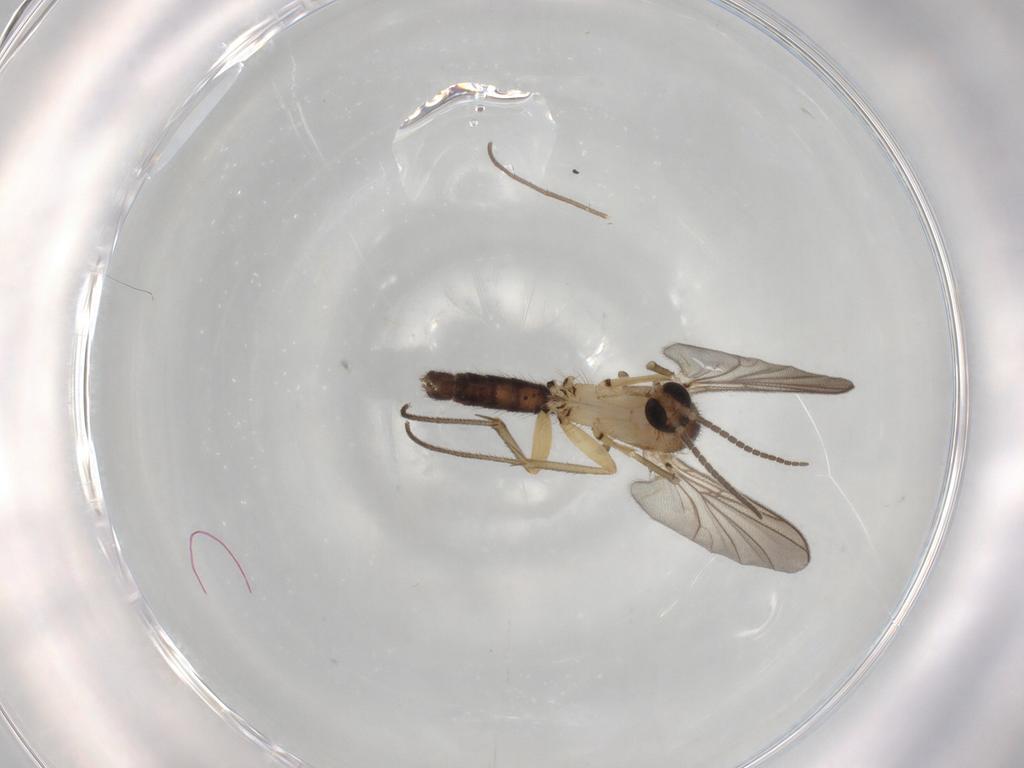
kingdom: Animalia
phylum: Arthropoda
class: Insecta
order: Diptera
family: Mycetophilidae
